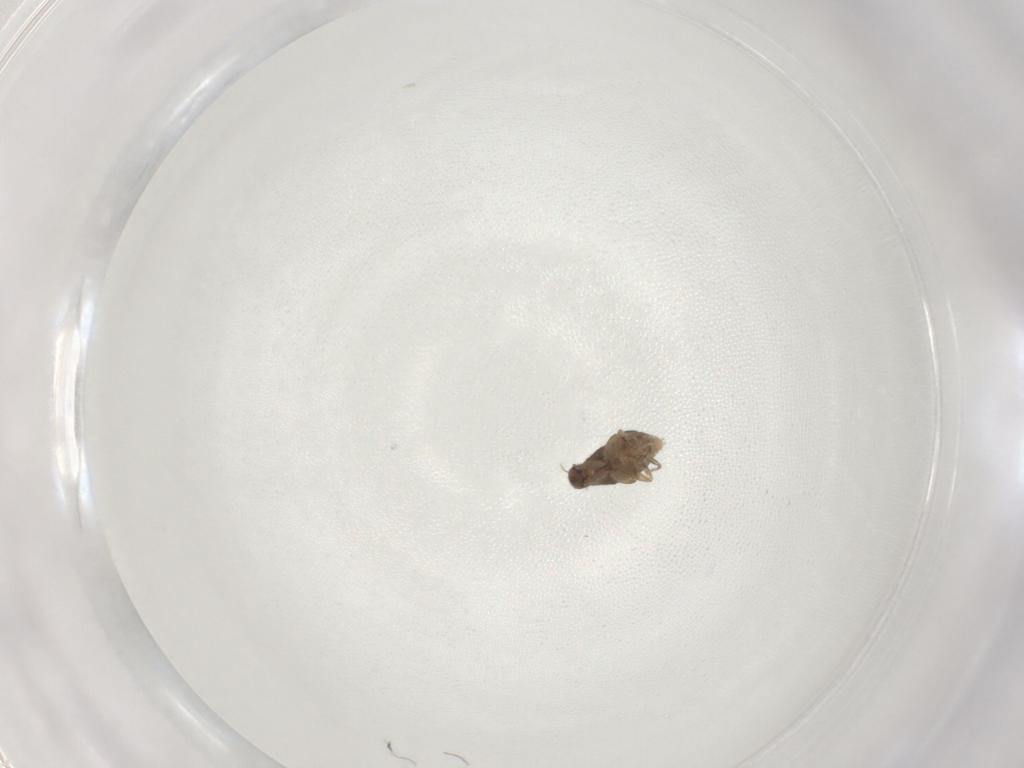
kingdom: Animalia
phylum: Arthropoda
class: Insecta
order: Diptera
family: Phoridae
